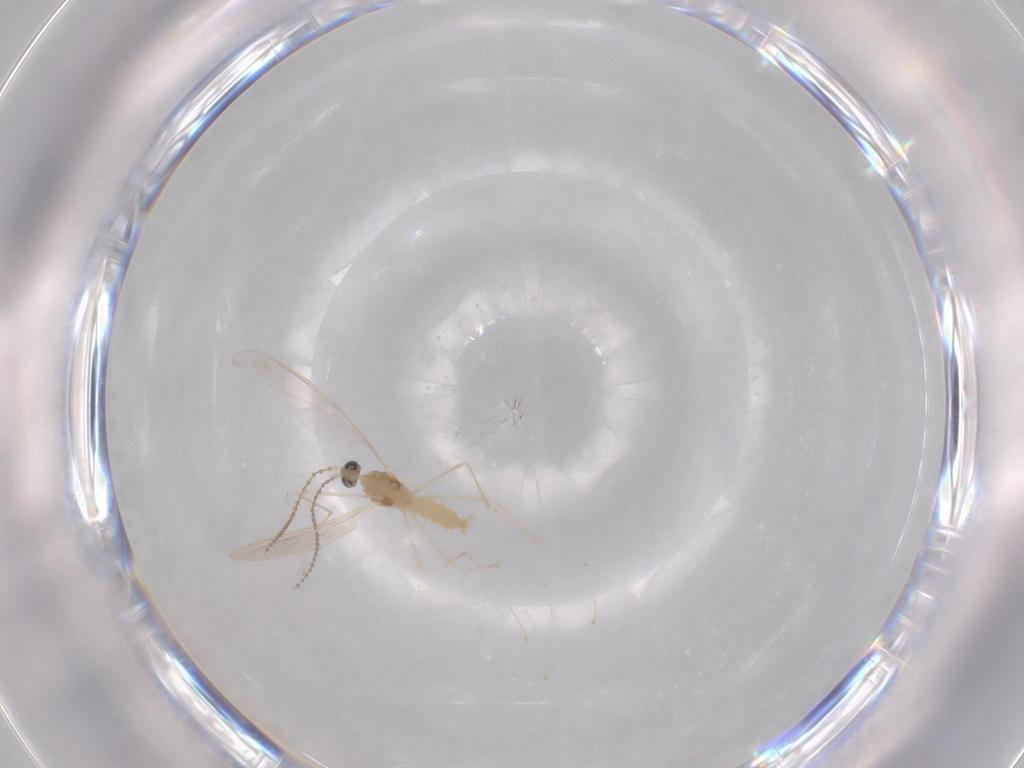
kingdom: Animalia
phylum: Arthropoda
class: Insecta
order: Diptera
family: Cecidomyiidae
